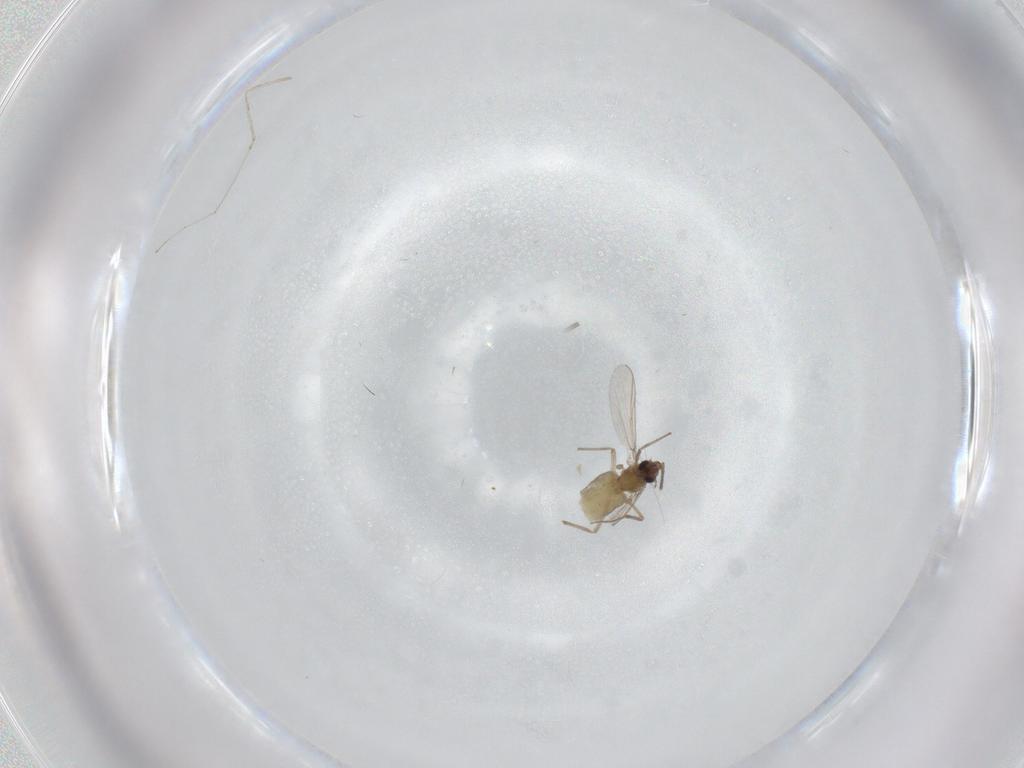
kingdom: Animalia
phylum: Arthropoda
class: Insecta
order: Diptera
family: Chironomidae
